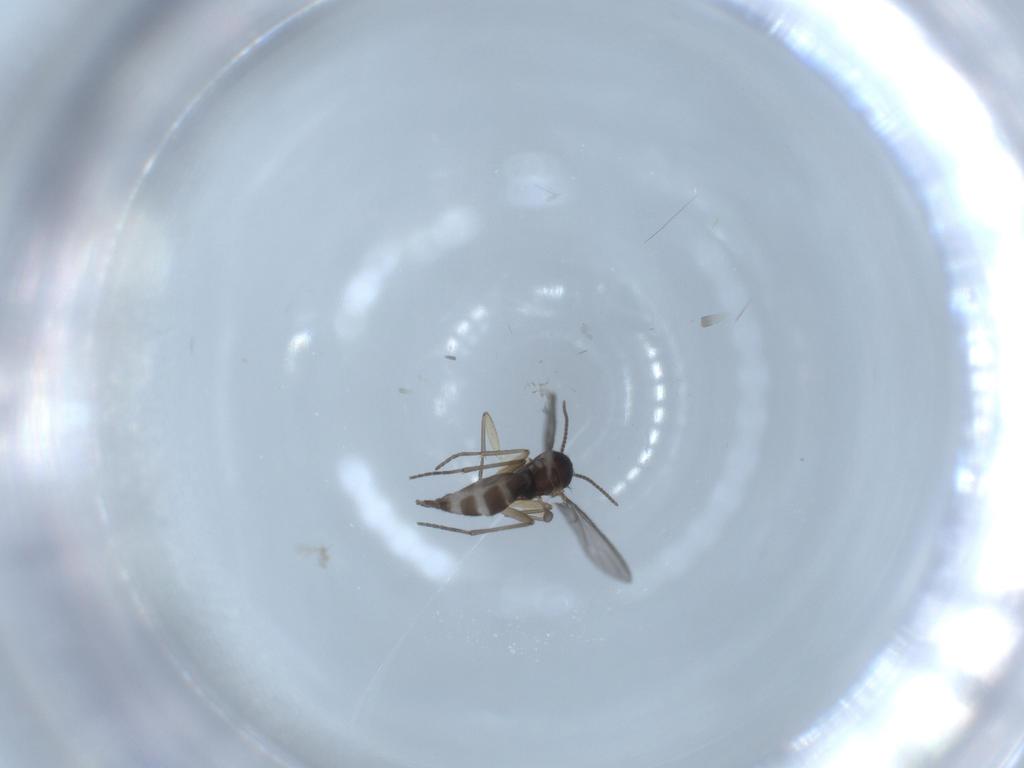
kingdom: Animalia
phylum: Arthropoda
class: Insecta
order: Diptera
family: Sciaridae
